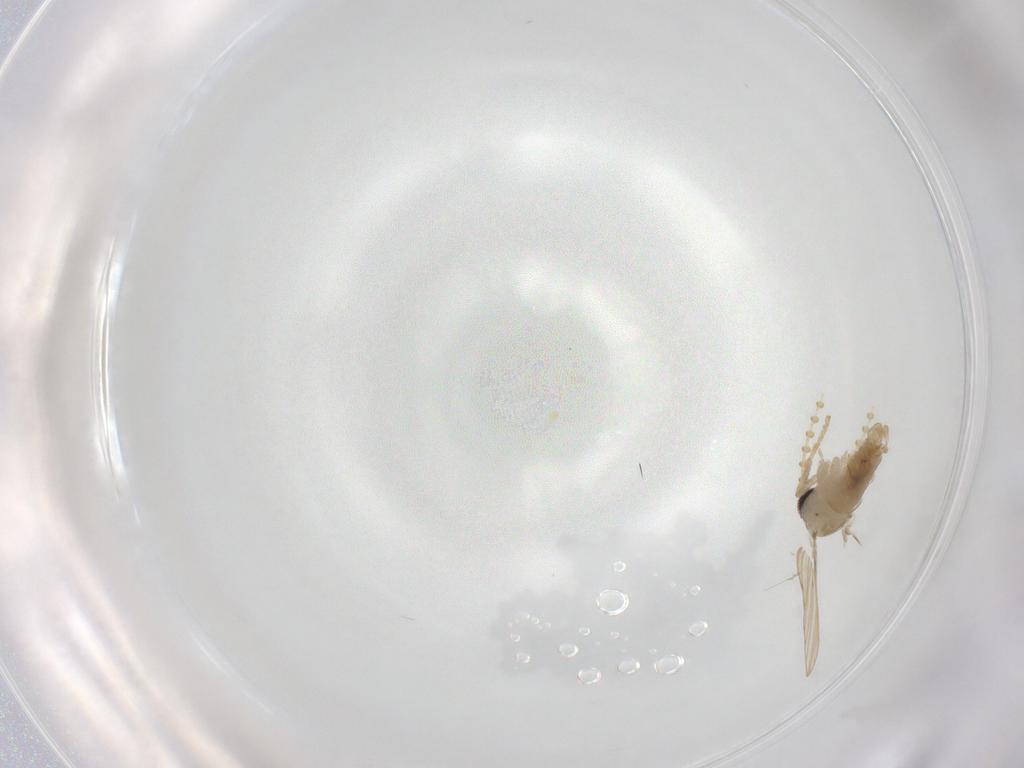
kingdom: Animalia
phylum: Arthropoda
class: Insecta
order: Diptera
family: Psychodidae
